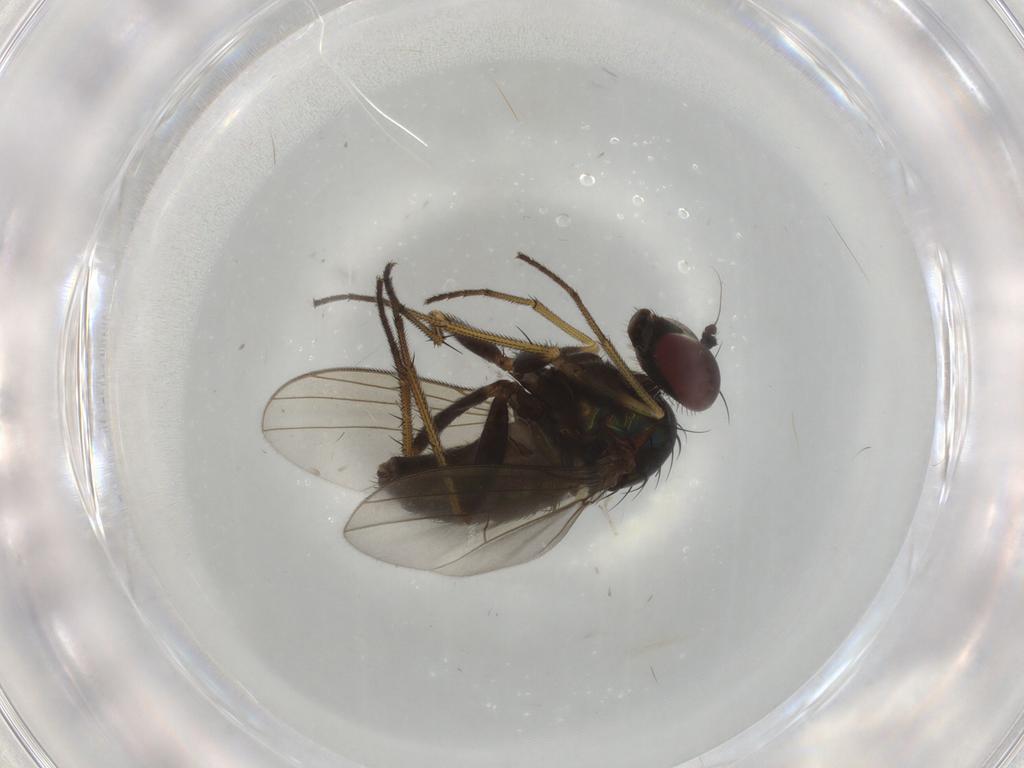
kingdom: Animalia
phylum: Arthropoda
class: Insecta
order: Diptera
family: Dolichopodidae
